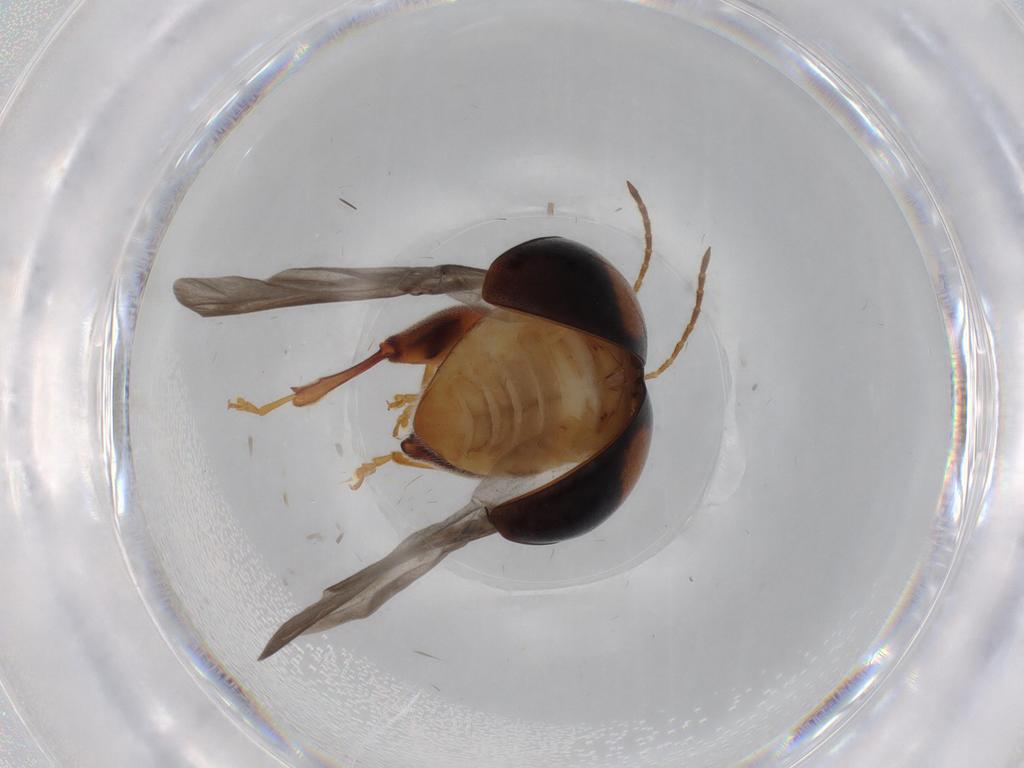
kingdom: Animalia
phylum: Arthropoda
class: Insecta
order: Coleoptera
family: Chrysomelidae
